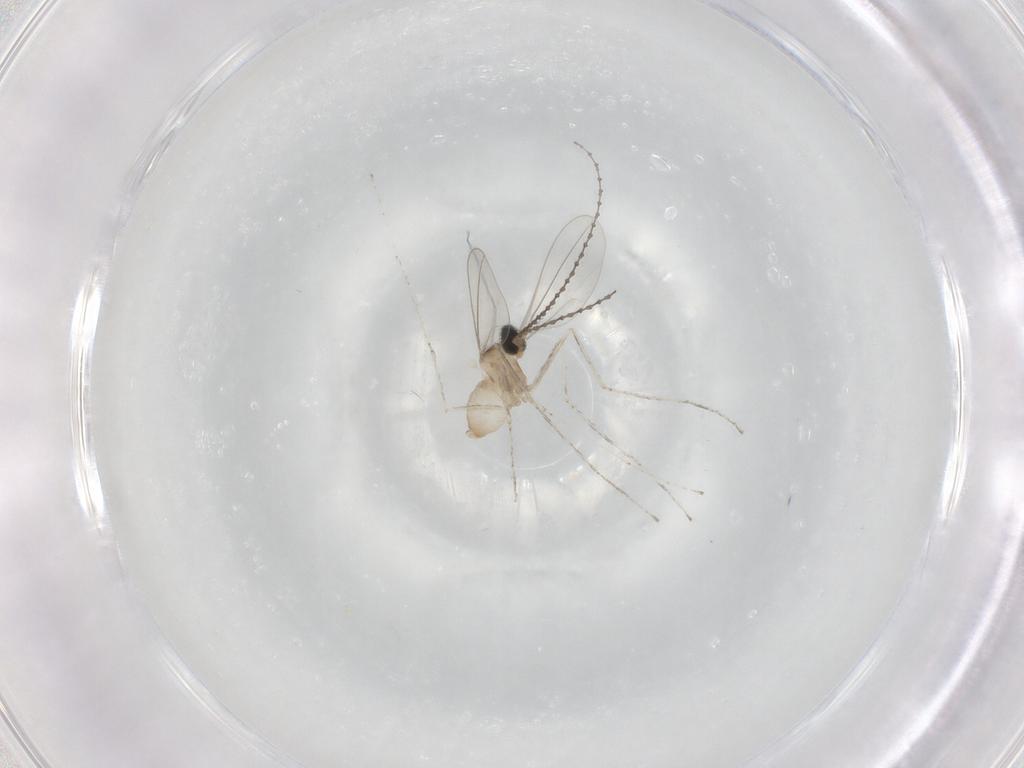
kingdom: Animalia
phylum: Arthropoda
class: Insecta
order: Diptera
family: Cecidomyiidae
